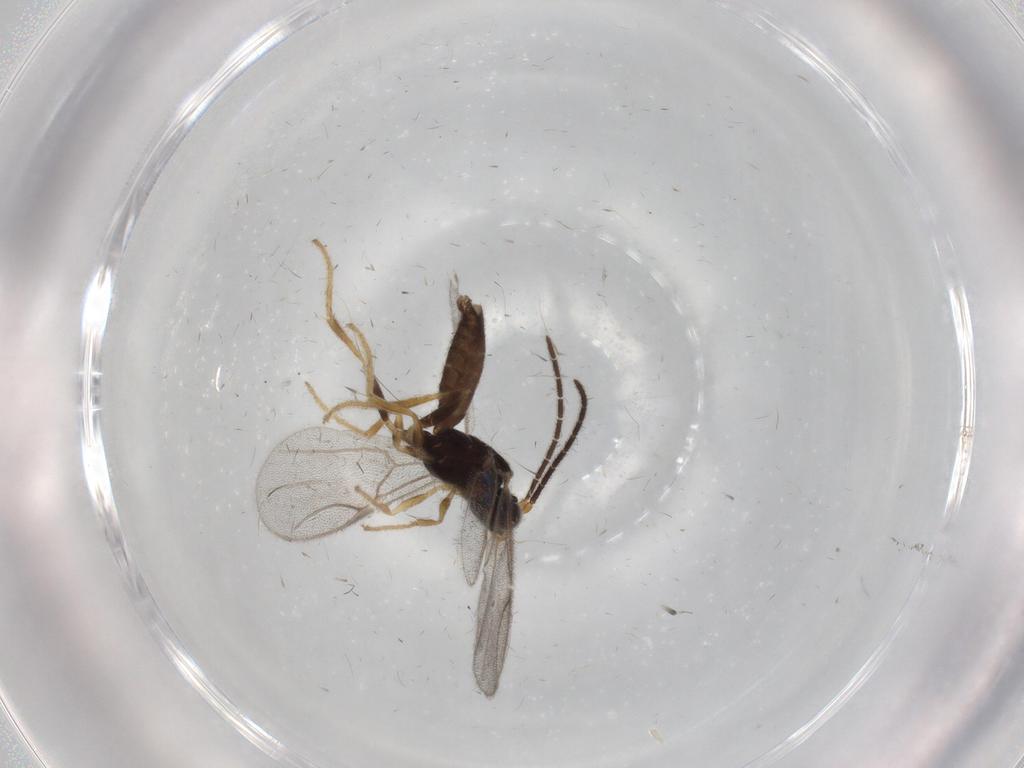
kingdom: Animalia
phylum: Arthropoda
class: Insecta
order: Hymenoptera
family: Dryinidae
